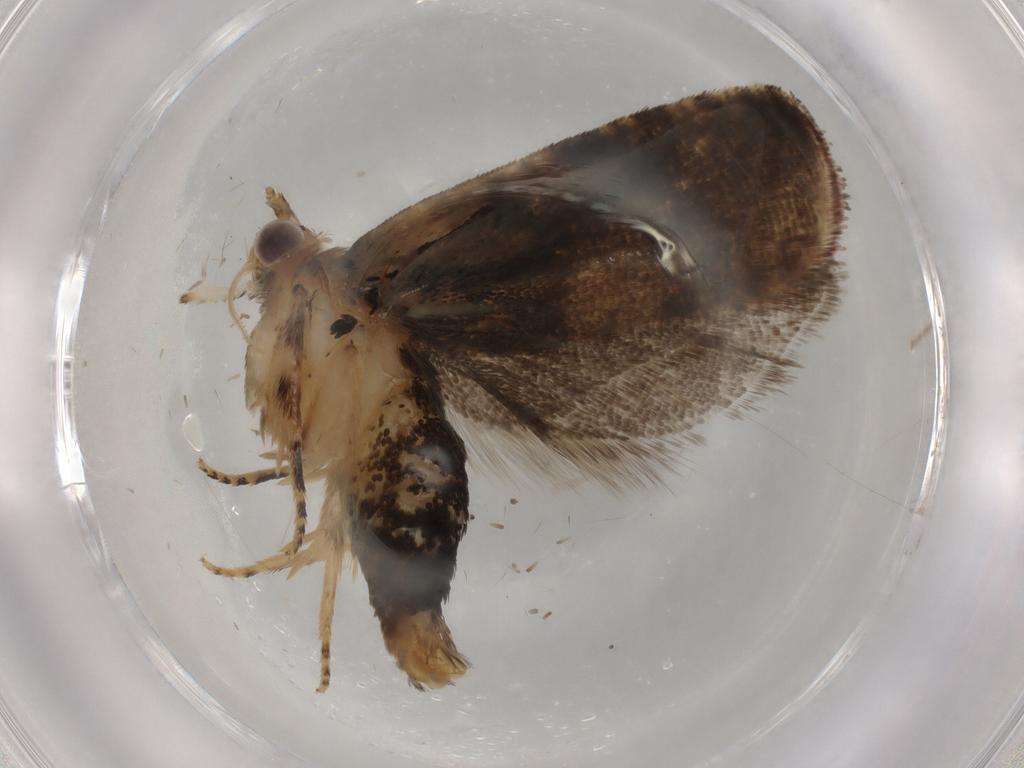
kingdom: Animalia
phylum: Arthropoda
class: Insecta
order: Lepidoptera
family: Tortricidae
